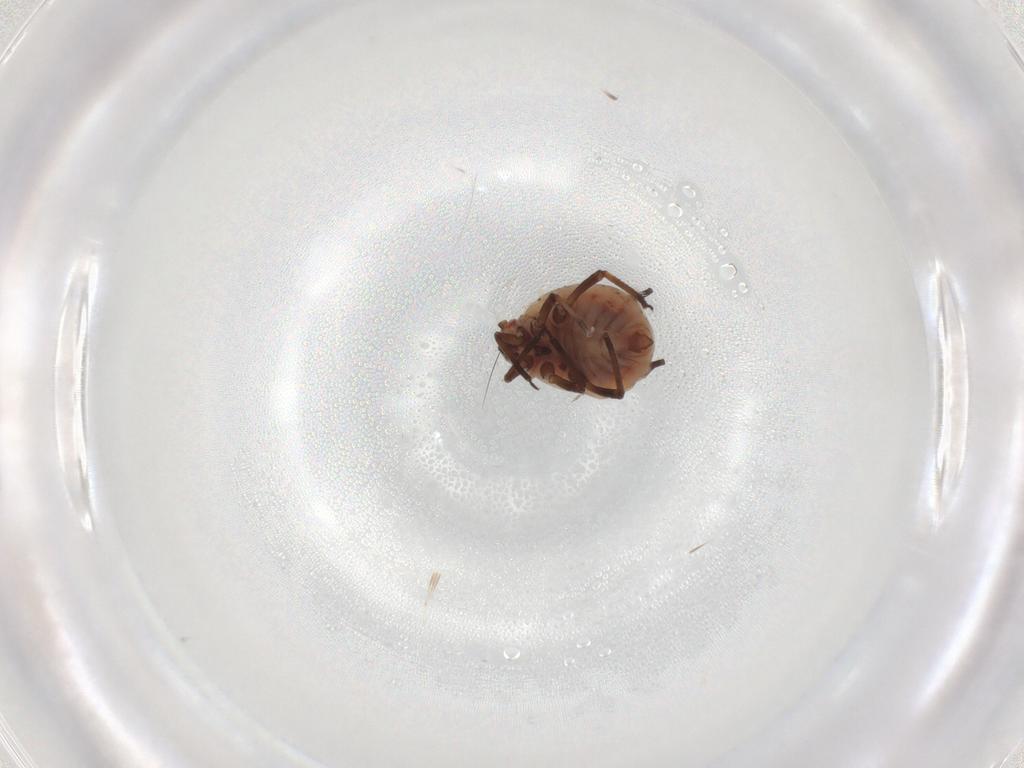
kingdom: Animalia
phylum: Arthropoda
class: Insecta
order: Hemiptera
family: Aphididae
